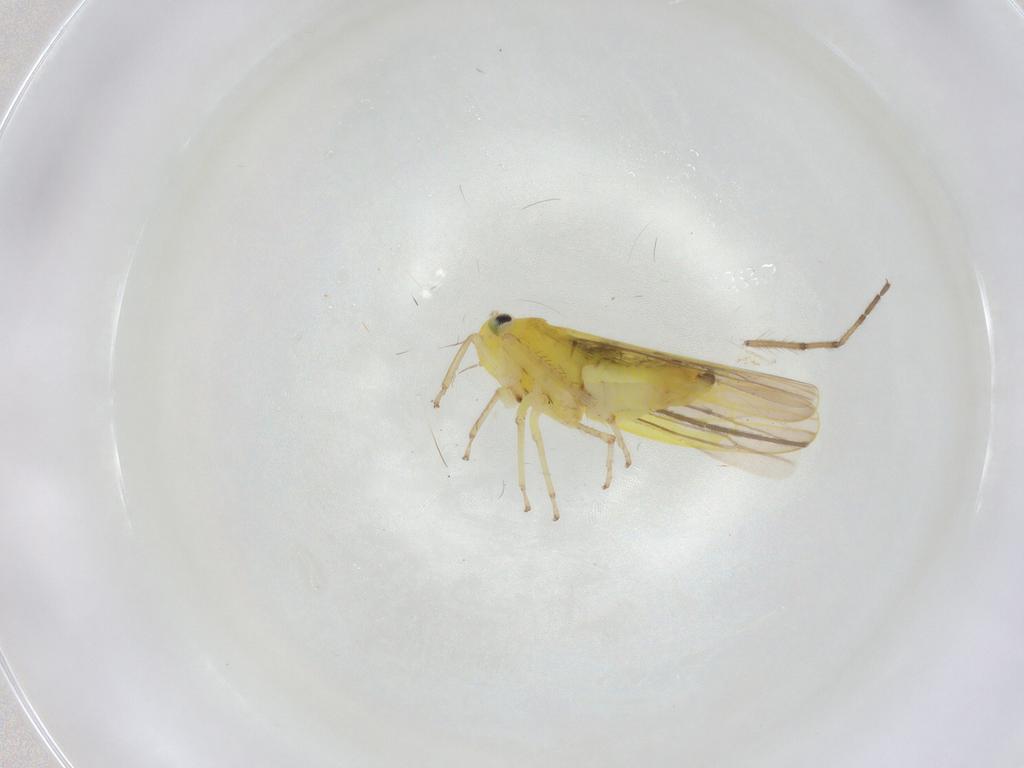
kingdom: Animalia
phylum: Arthropoda
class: Insecta
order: Hemiptera
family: Cicadellidae
